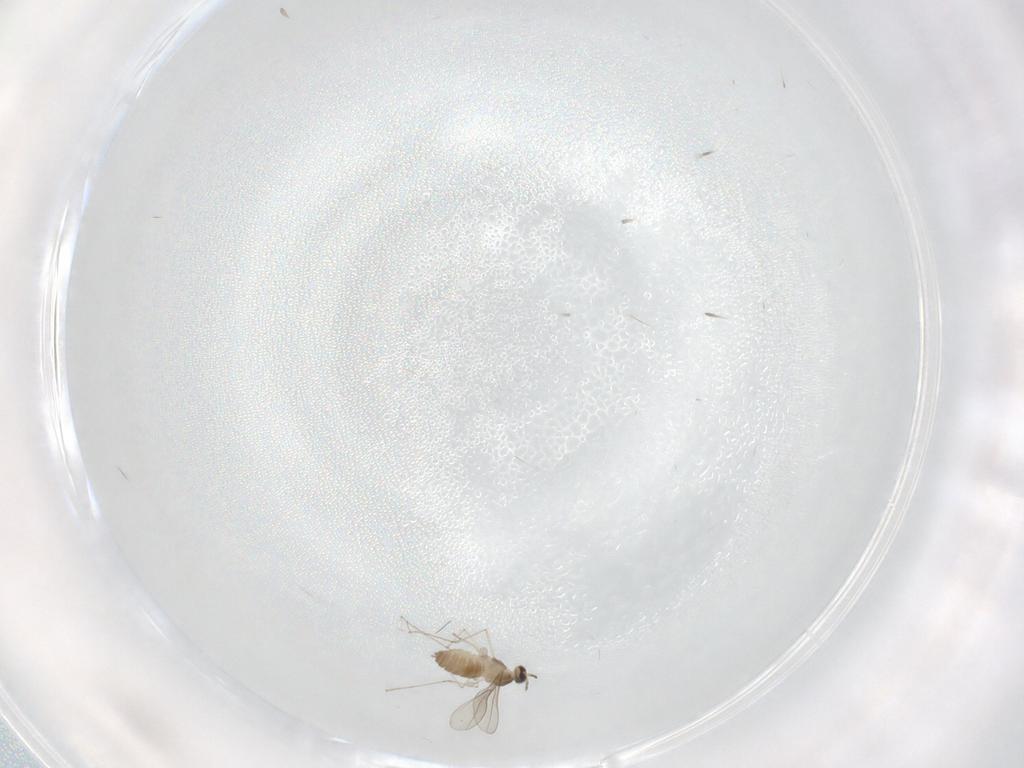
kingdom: Animalia
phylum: Arthropoda
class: Insecta
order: Diptera
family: Cecidomyiidae
